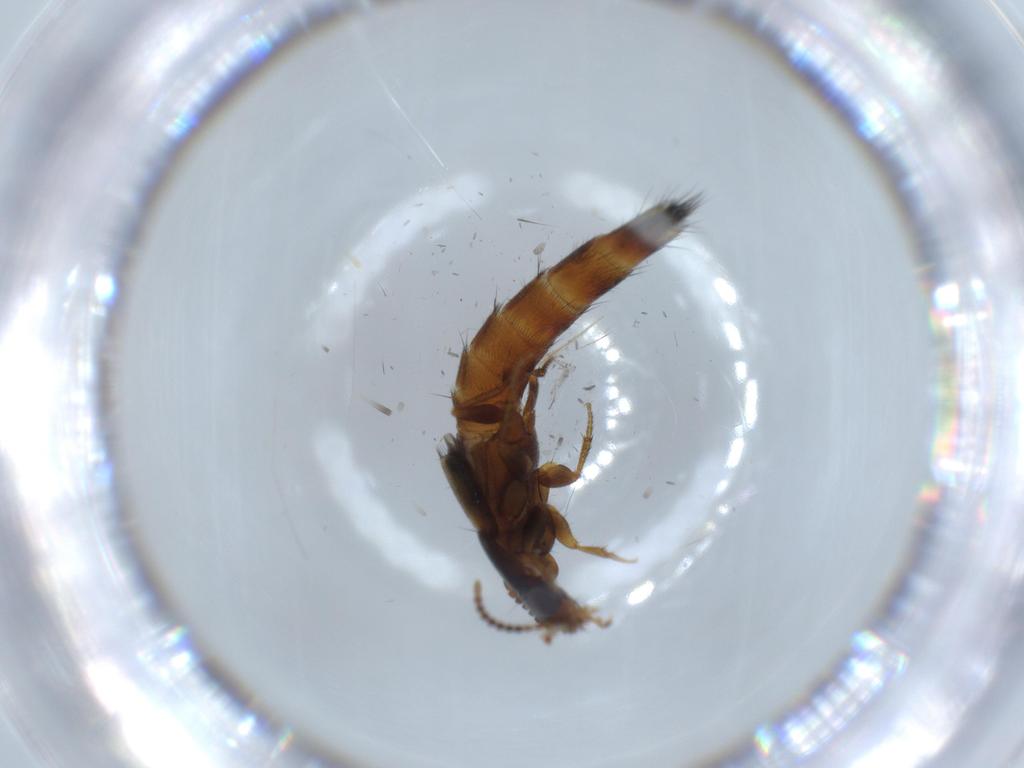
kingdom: Animalia
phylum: Arthropoda
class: Insecta
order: Coleoptera
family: Staphylinidae
